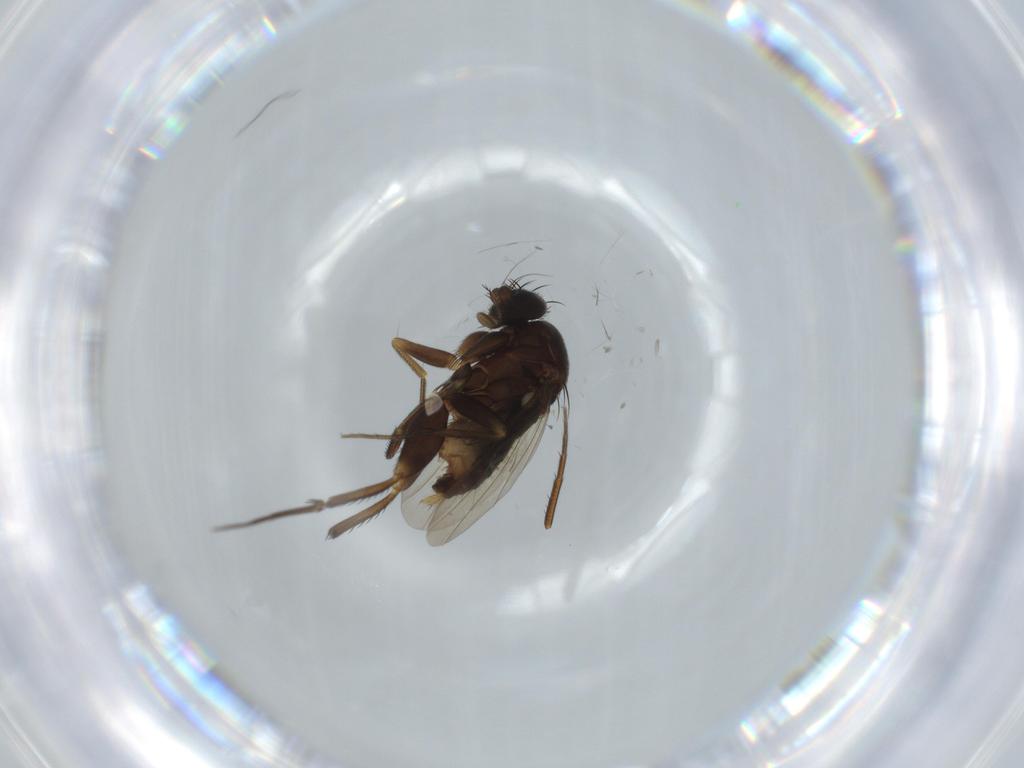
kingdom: Animalia
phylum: Arthropoda
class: Insecta
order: Diptera
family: Phoridae
